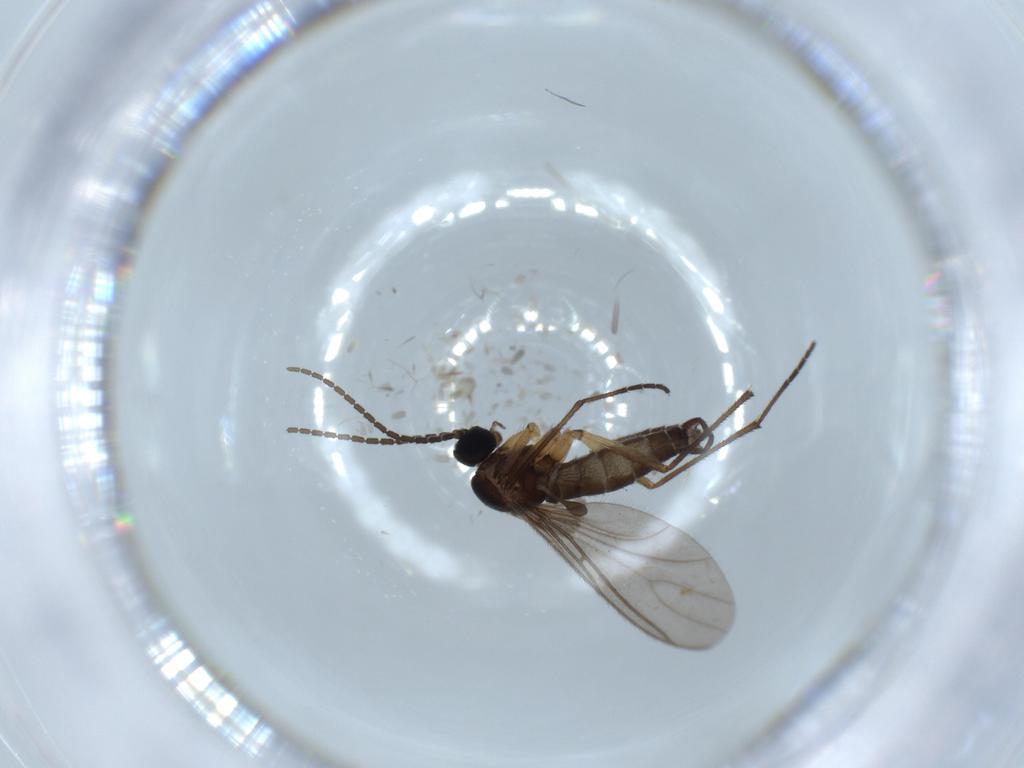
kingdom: Animalia
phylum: Arthropoda
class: Insecta
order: Diptera
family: Sciaridae
